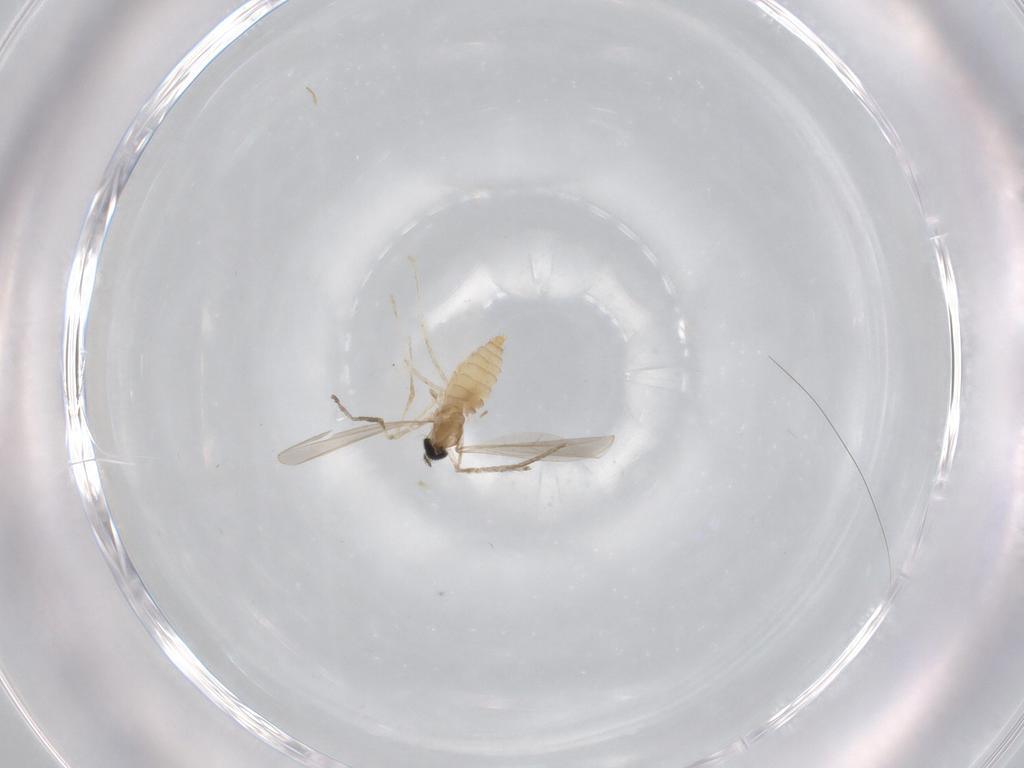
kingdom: Animalia
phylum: Arthropoda
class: Insecta
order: Diptera
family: Cecidomyiidae
